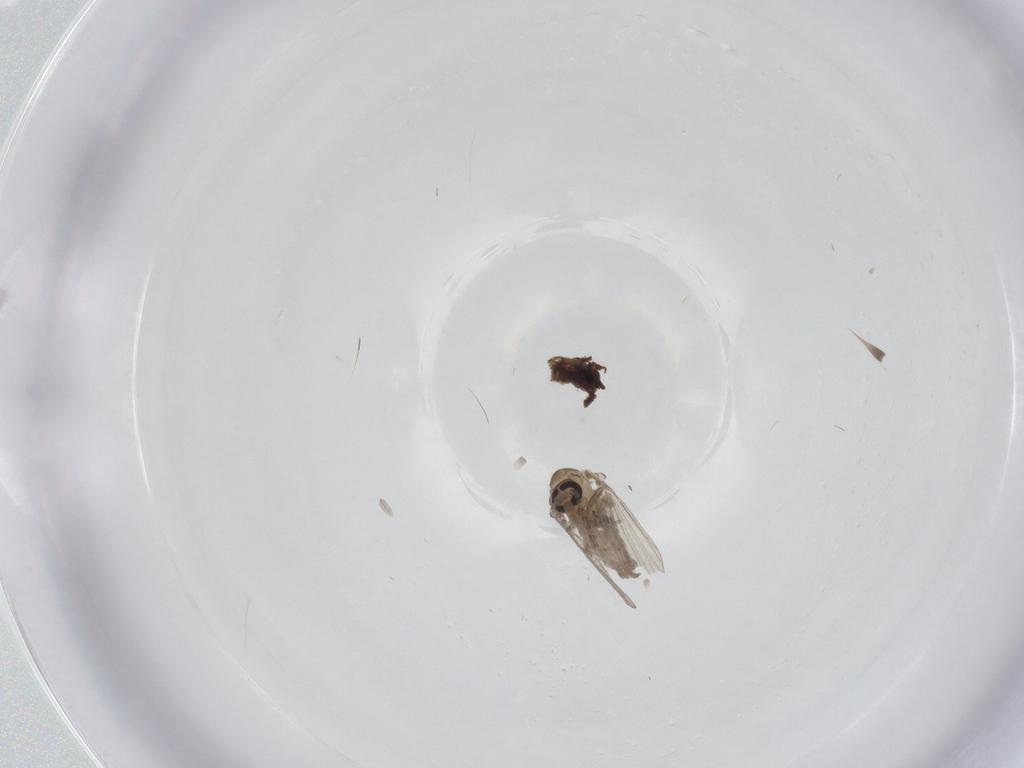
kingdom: Animalia
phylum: Arthropoda
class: Insecta
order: Diptera
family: Psychodidae
